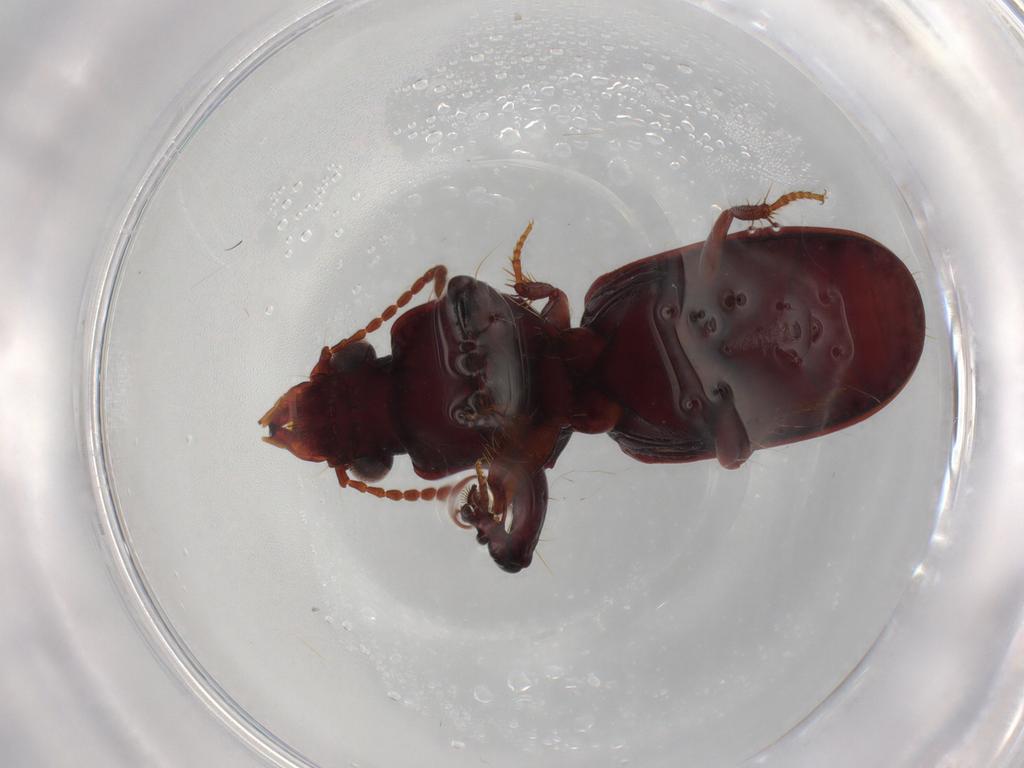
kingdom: Animalia
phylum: Arthropoda
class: Insecta
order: Coleoptera
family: Carabidae
